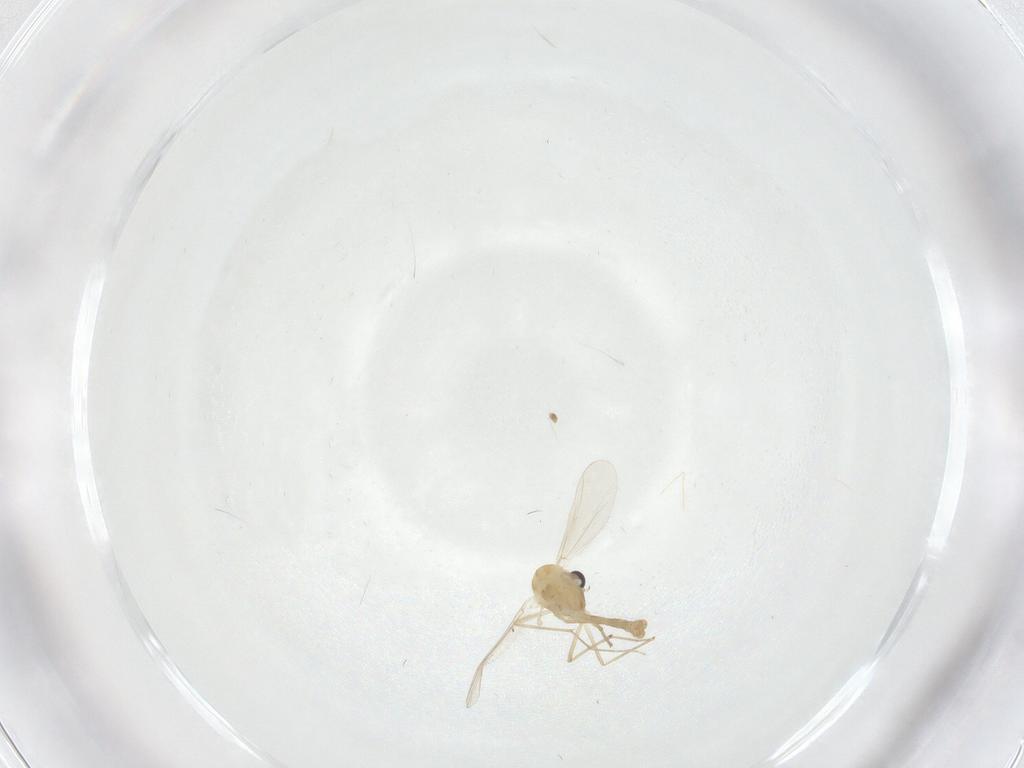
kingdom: Animalia
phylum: Arthropoda
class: Insecta
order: Diptera
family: Chironomidae
